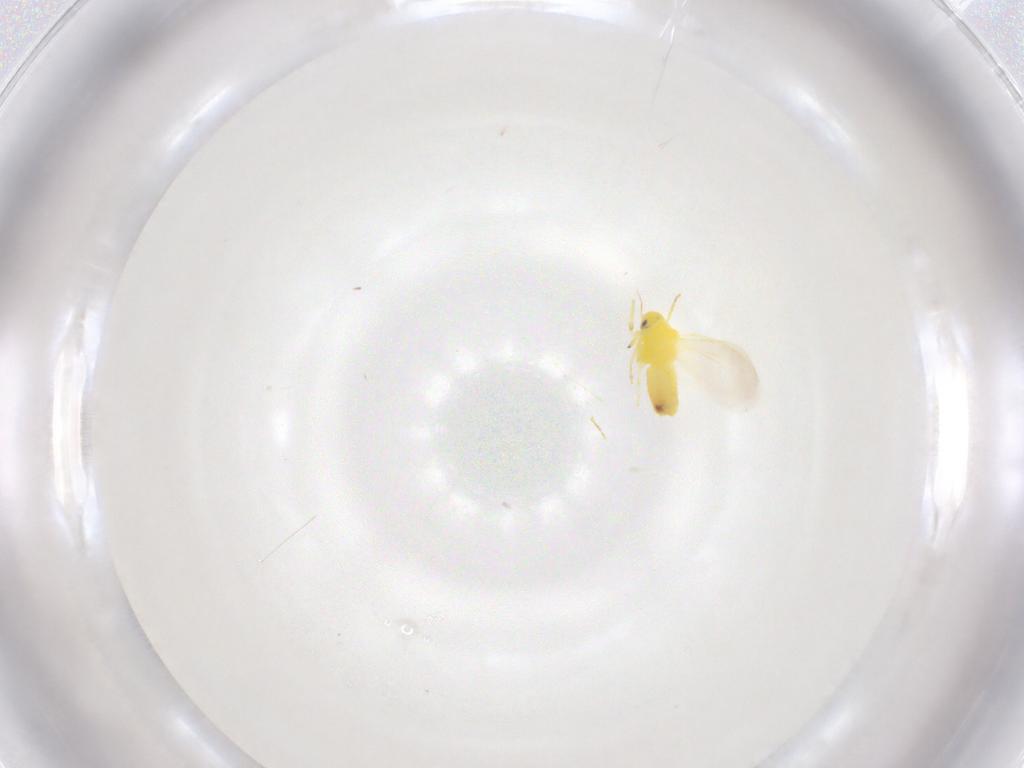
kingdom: Animalia
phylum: Arthropoda
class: Insecta
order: Hemiptera
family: Aleyrodidae
